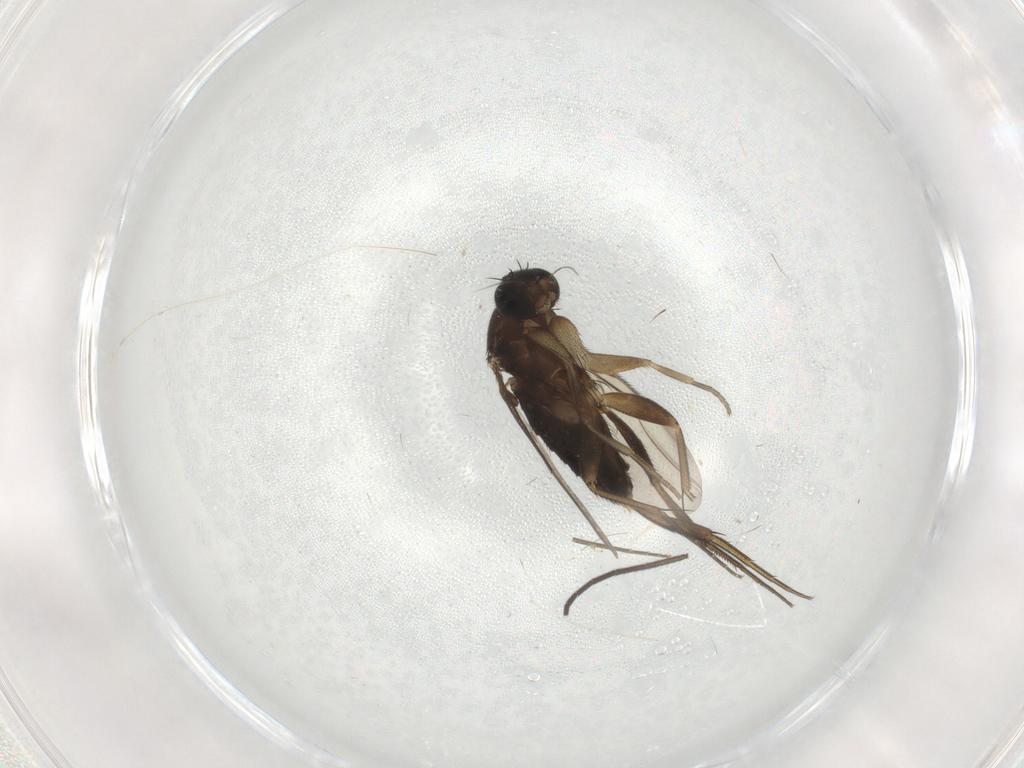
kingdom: Animalia
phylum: Arthropoda
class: Insecta
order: Diptera
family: Phoridae
